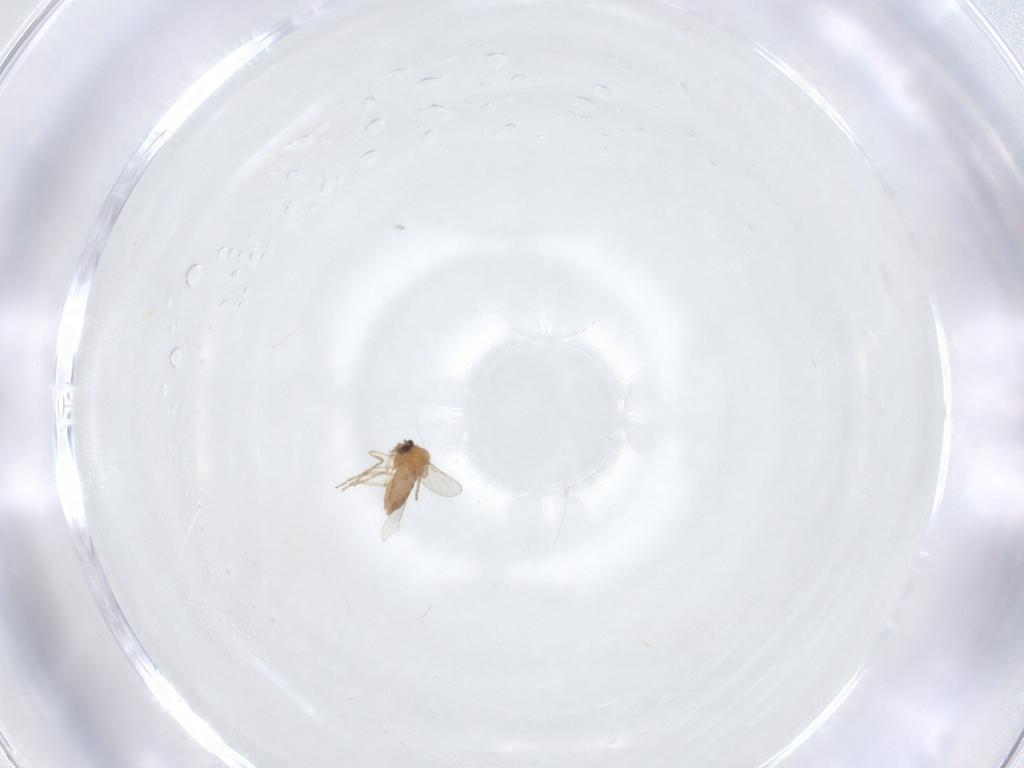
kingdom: Animalia
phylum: Arthropoda
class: Insecta
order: Diptera
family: Ceratopogonidae
